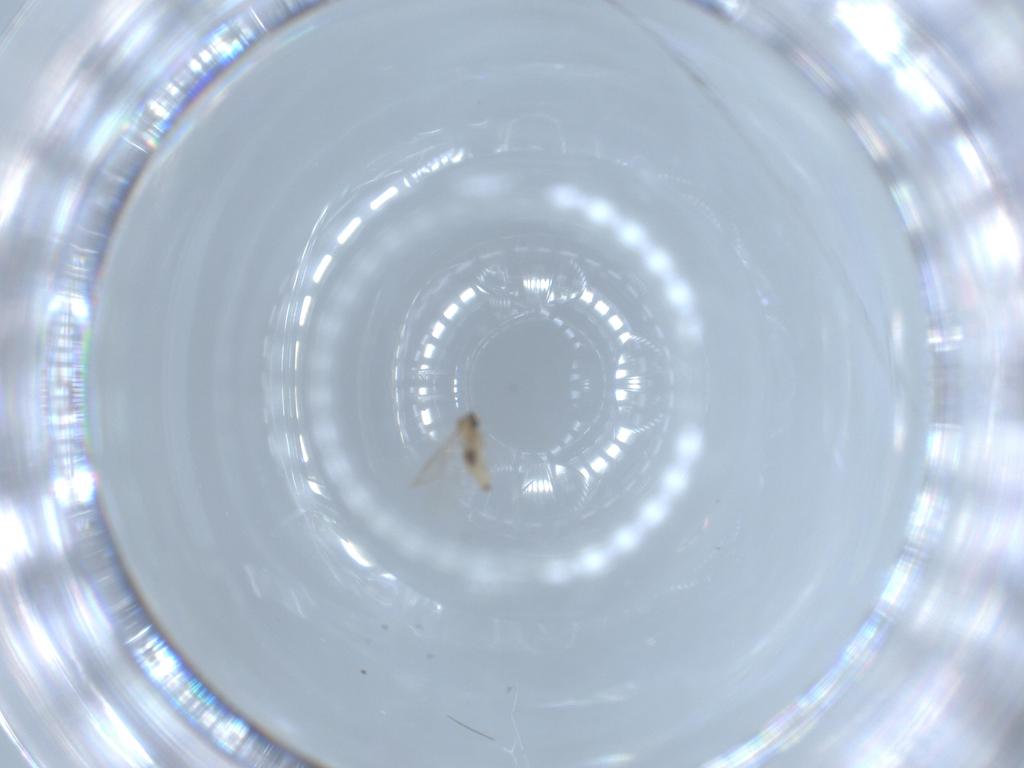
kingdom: Animalia
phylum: Arthropoda
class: Insecta
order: Diptera
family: Cecidomyiidae
